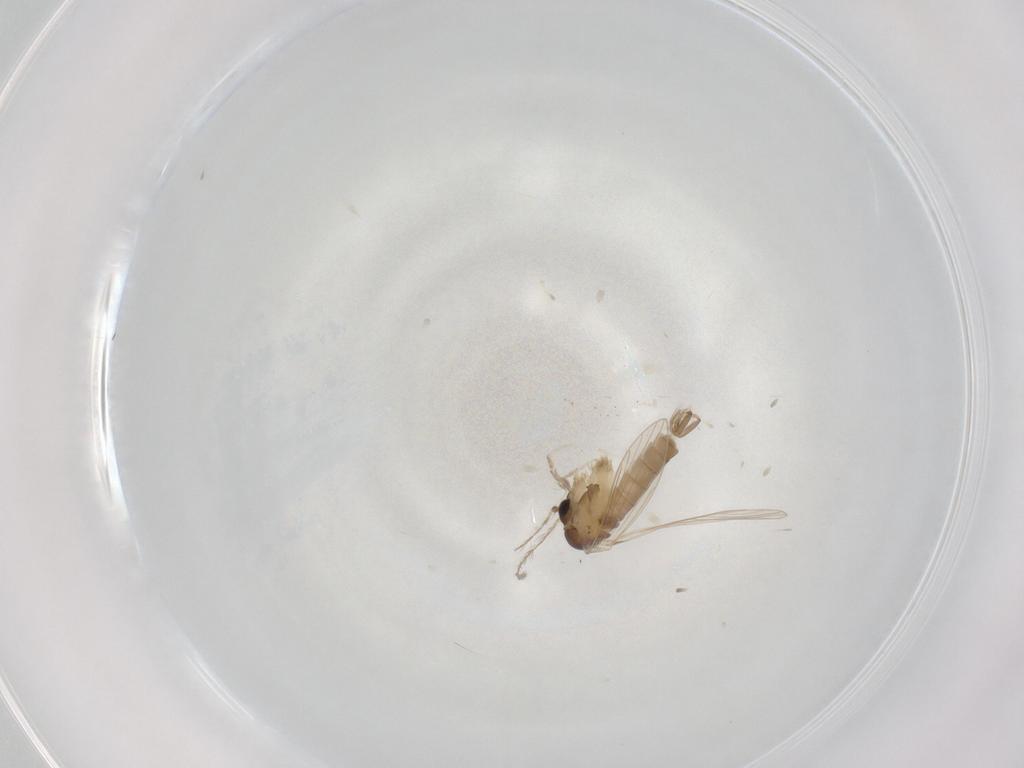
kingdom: Animalia
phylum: Arthropoda
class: Insecta
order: Diptera
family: Psychodidae
